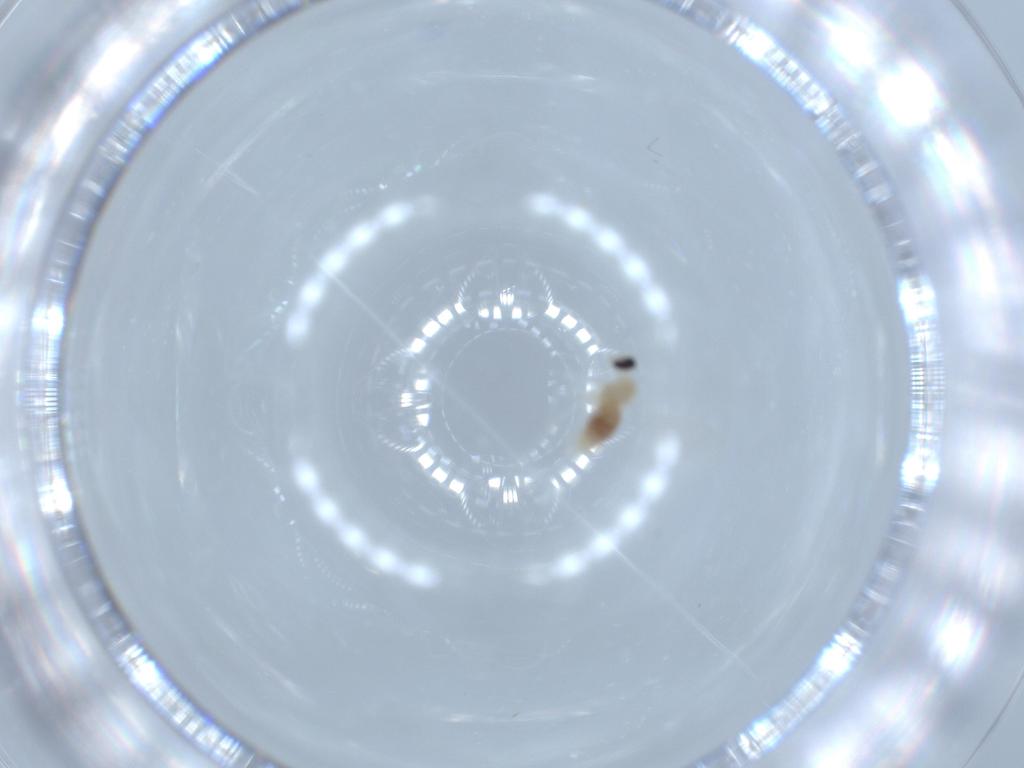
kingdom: Animalia
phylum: Arthropoda
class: Insecta
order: Diptera
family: Cecidomyiidae
